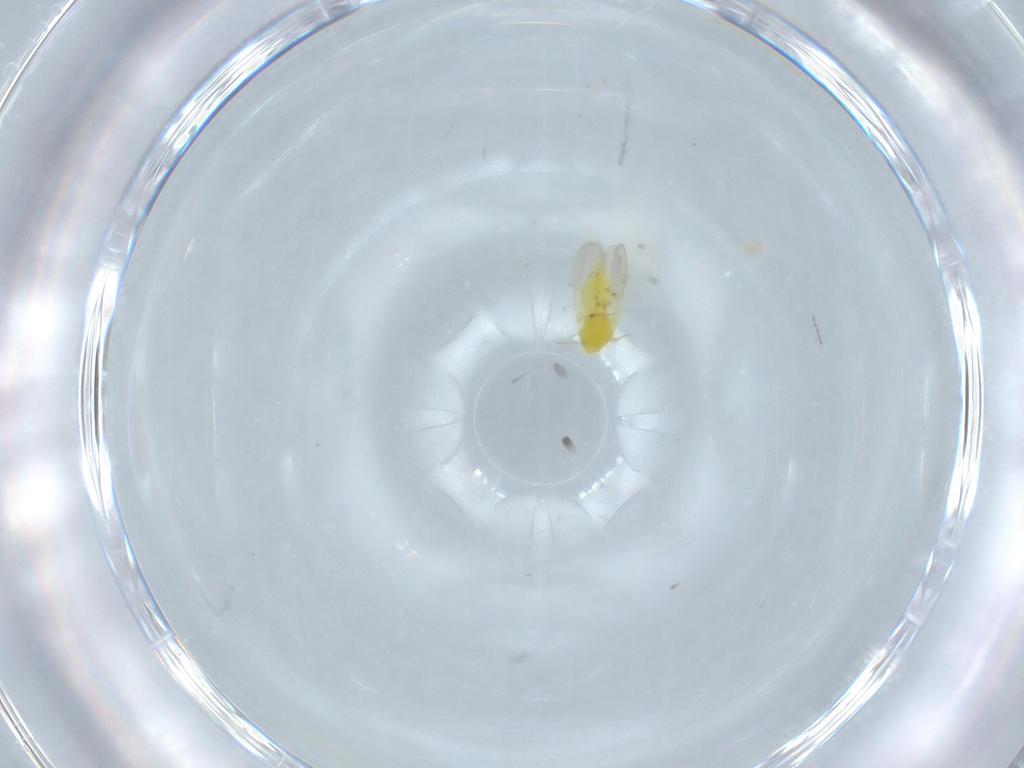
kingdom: Animalia
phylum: Arthropoda
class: Insecta
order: Hemiptera
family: Aleyrodidae
